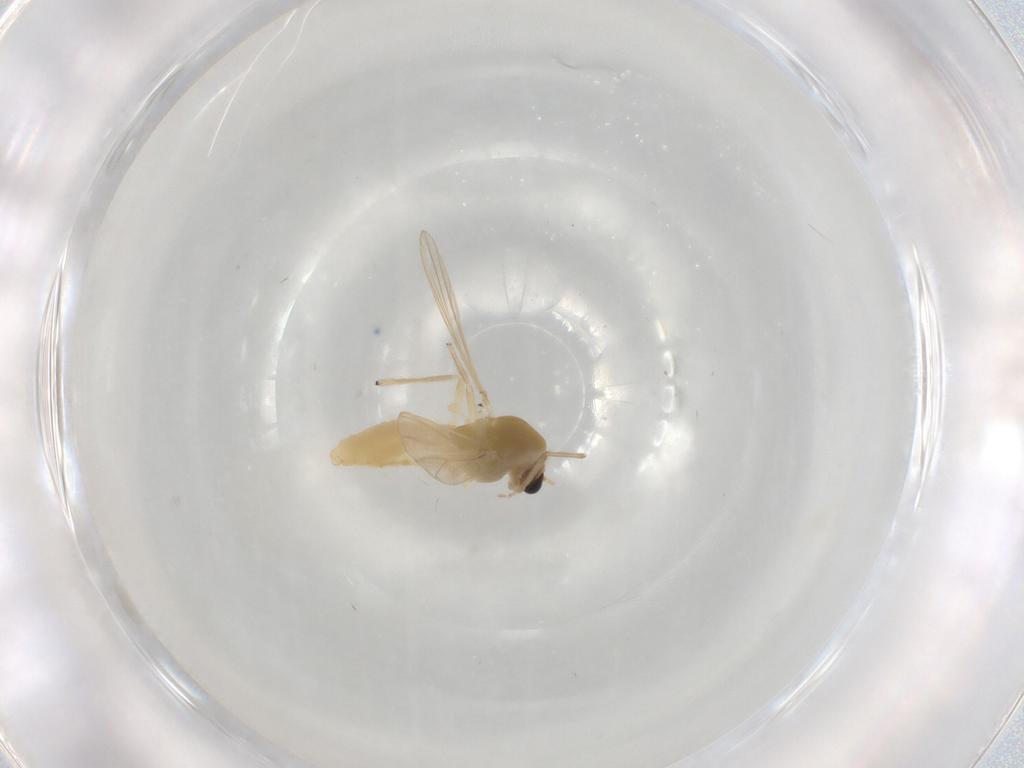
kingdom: Animalia
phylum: Arthropoda
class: Insecta
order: Diptera
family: Chironomidae
